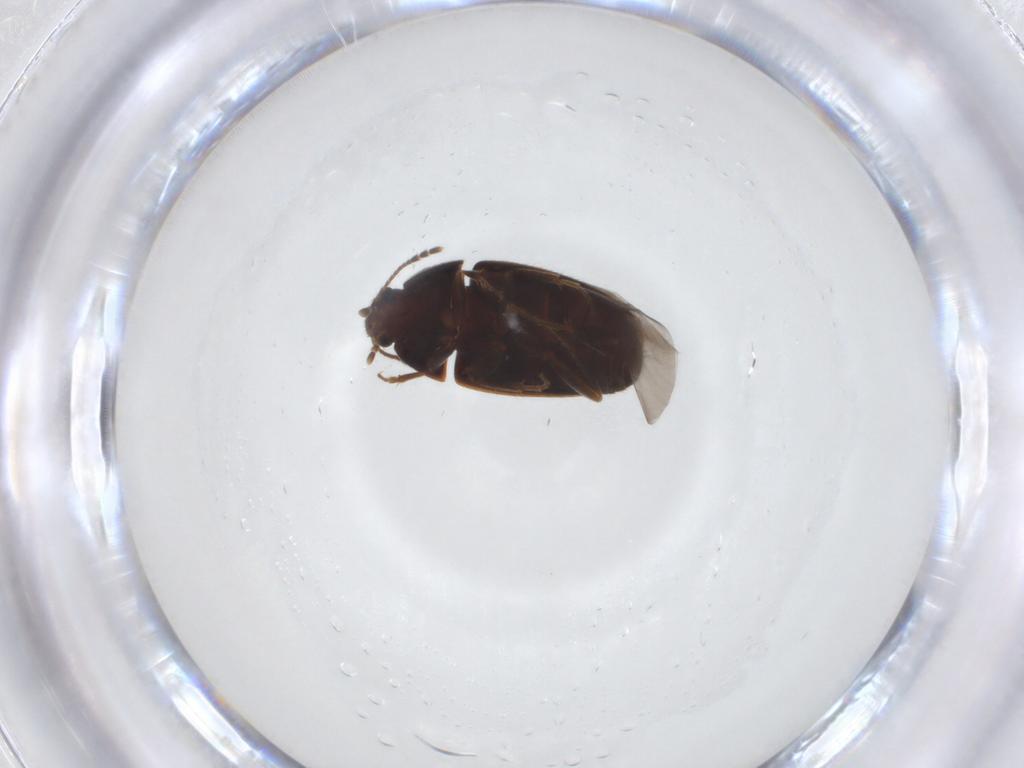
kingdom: Animalia
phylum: Arthropoda
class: Insecta
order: Coleoptera
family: Mycetophagidae
